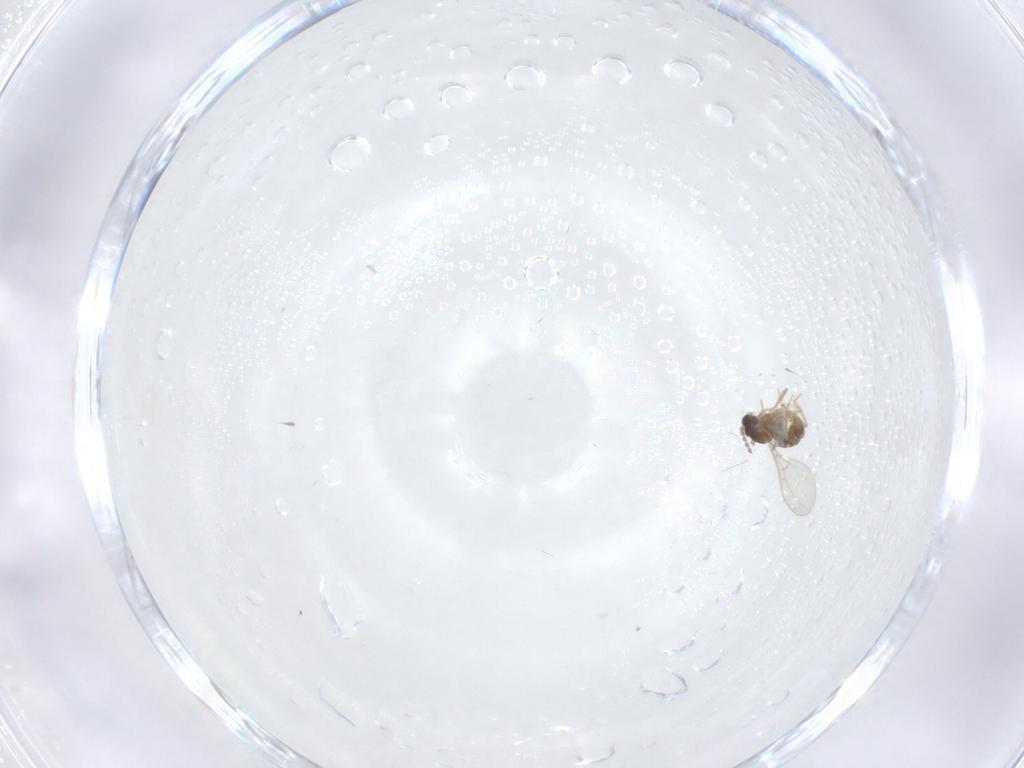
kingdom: Animalia
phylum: Arthropoda
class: Insecta
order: Diptera
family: Cecidomyiidae
